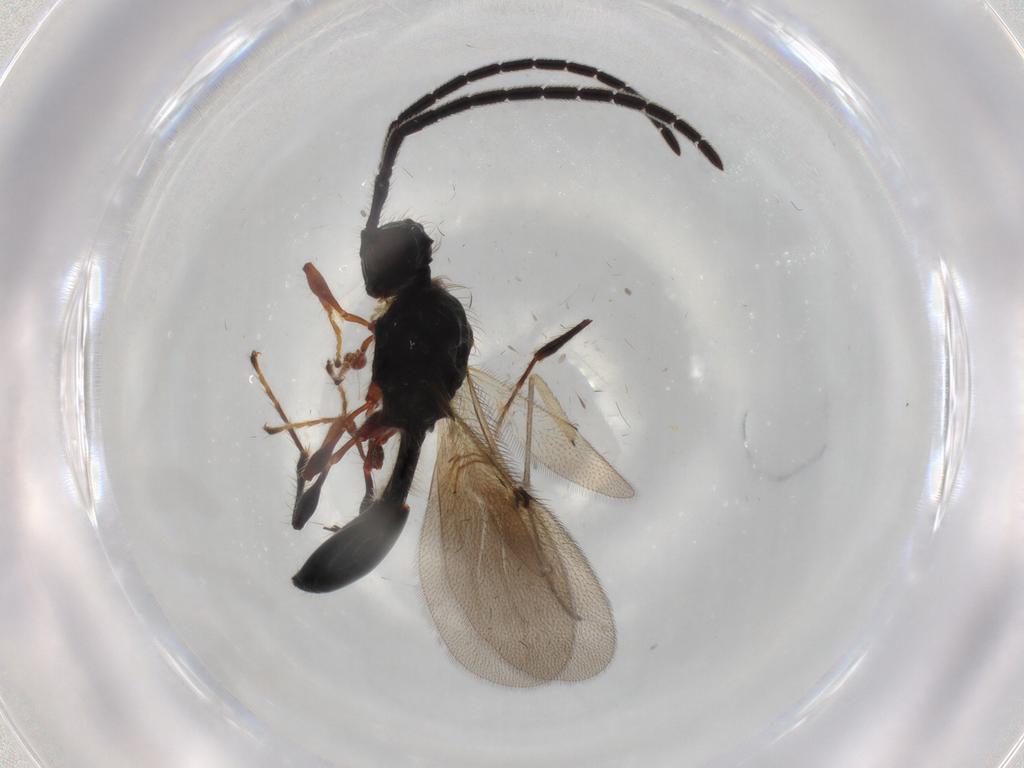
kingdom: Animalia
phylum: Arthropoda
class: Insecta
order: Hymenoptera
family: Diapriidae
